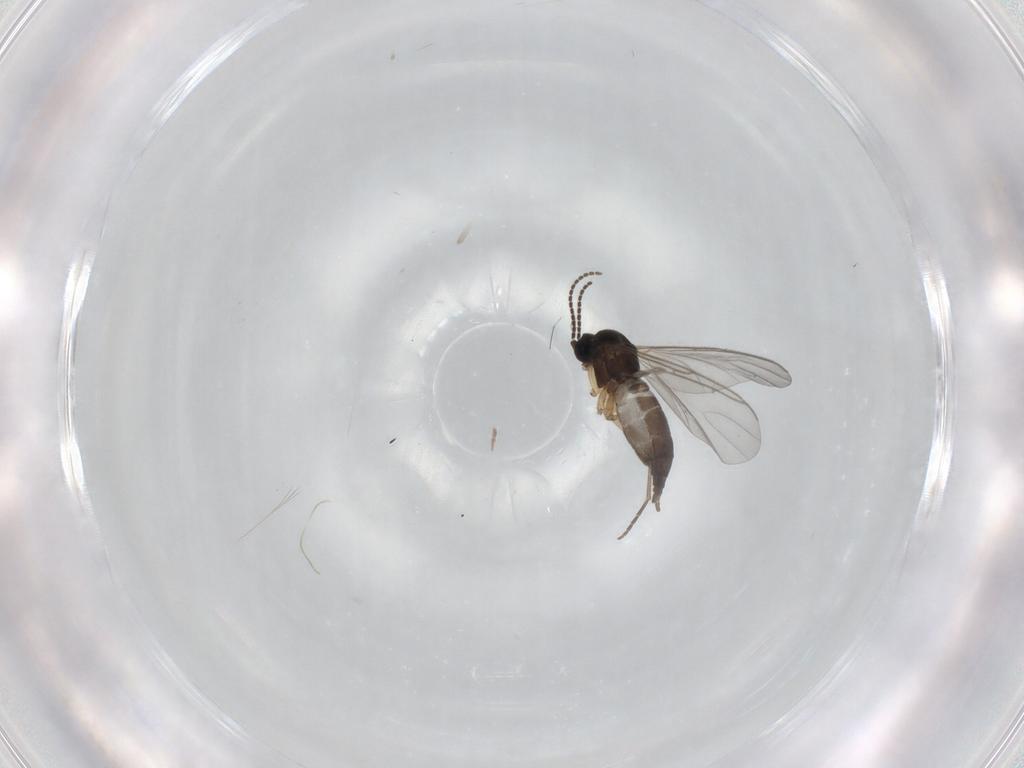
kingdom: Animalia
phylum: Arthropoda
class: Insecta
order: Diptera
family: Sciaridae
